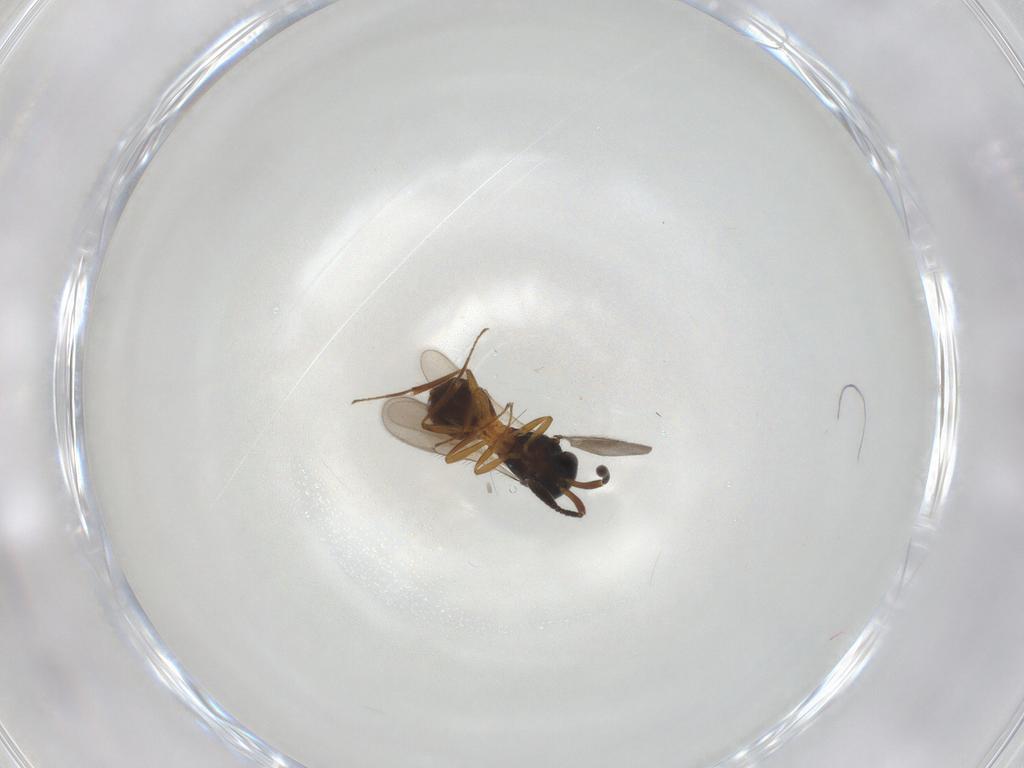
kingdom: Animalia
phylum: Arthropoda
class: Insecta
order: Hymenoptera
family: Scelionidae
